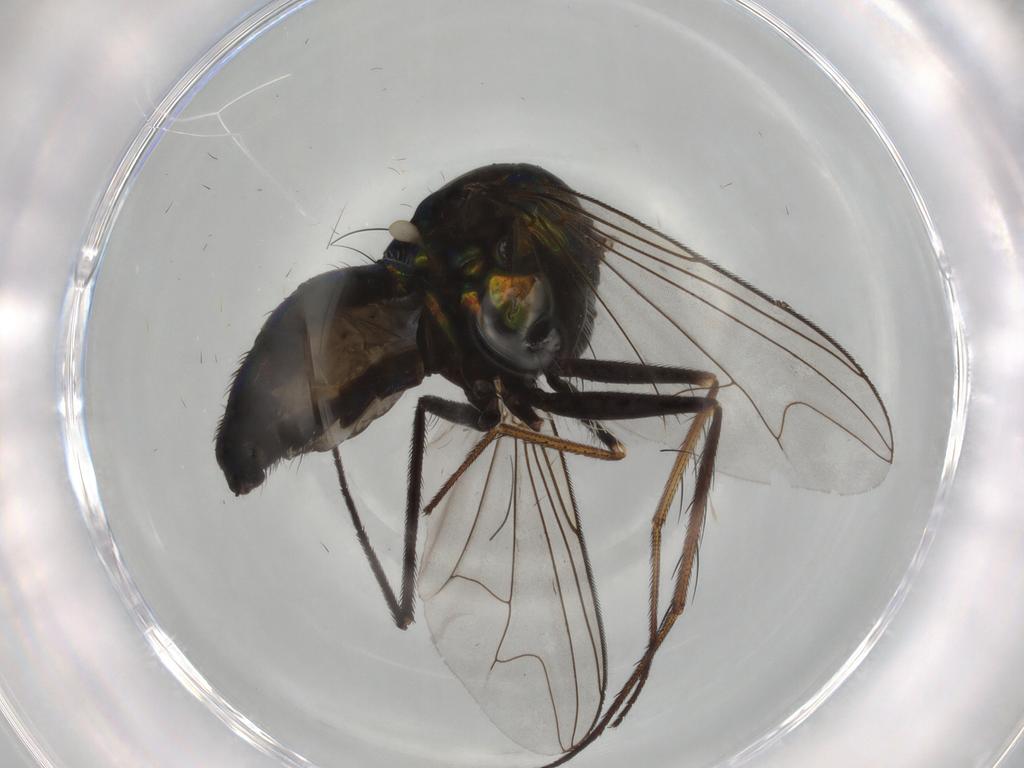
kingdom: Animalia
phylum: Arthropoda
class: Insecta
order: Diptera
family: Dolichopodidae
